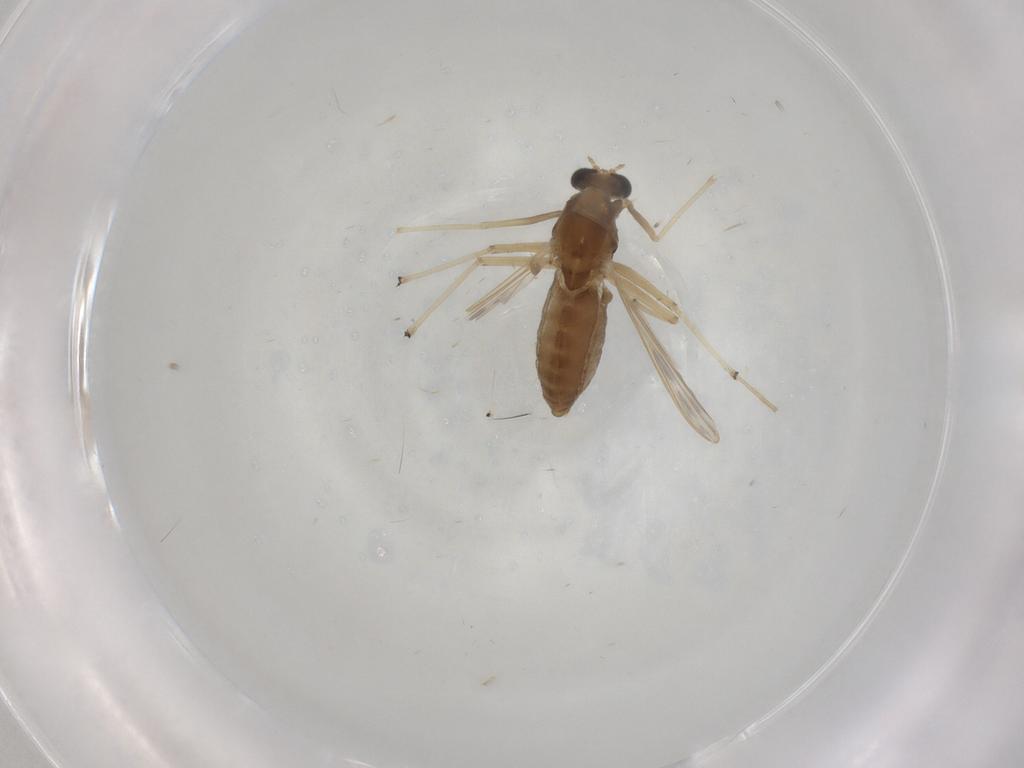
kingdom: Animalia
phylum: Arthropoda
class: Insecta
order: Diptera
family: Chironomidae
